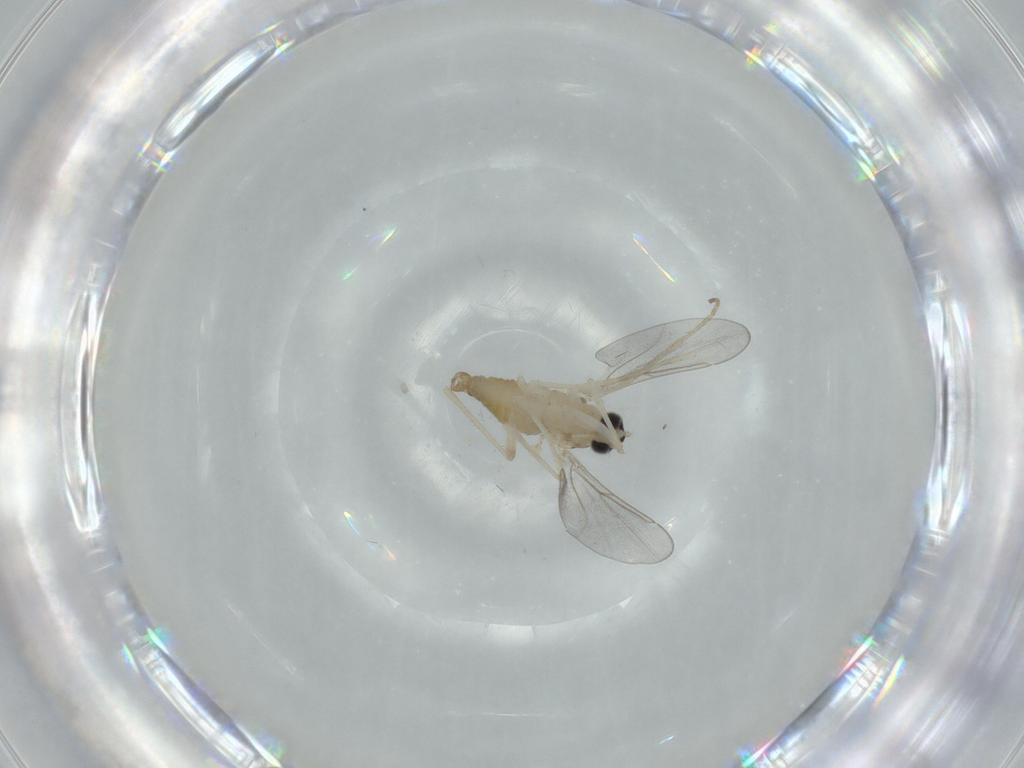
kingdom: Animalia
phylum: Arthropoda
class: Insecta
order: Diptera
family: Cecidomyiidae
